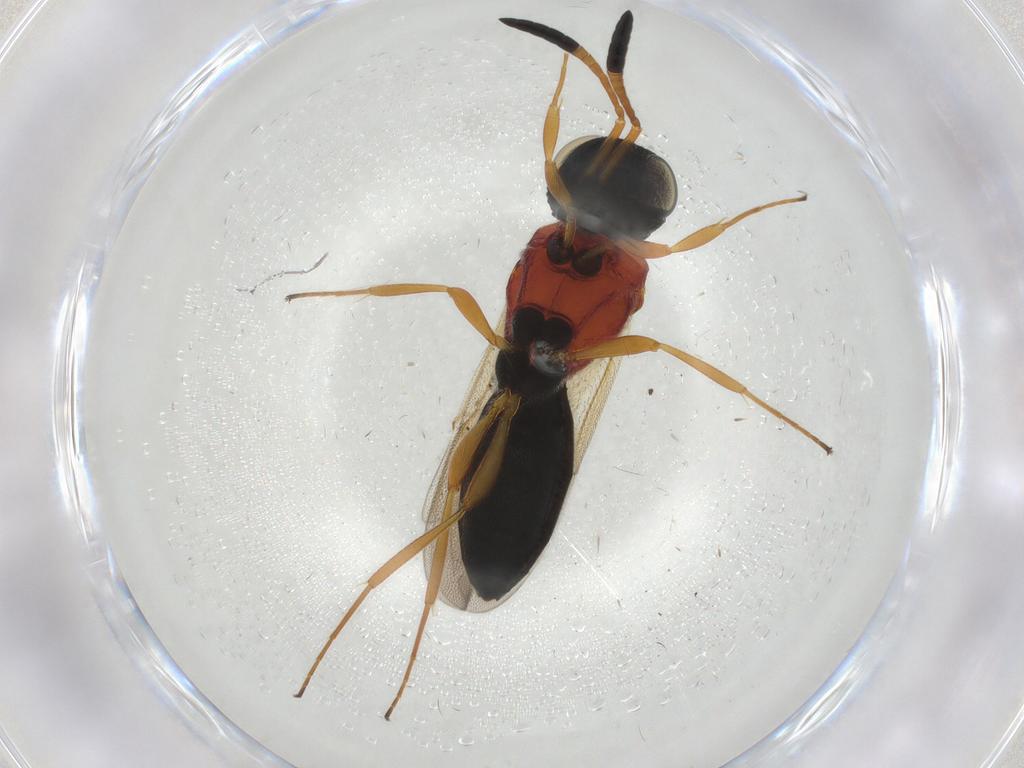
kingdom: Animalia
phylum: Arthropoda
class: Insecta
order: Hymenoptera
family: Scelionidae
